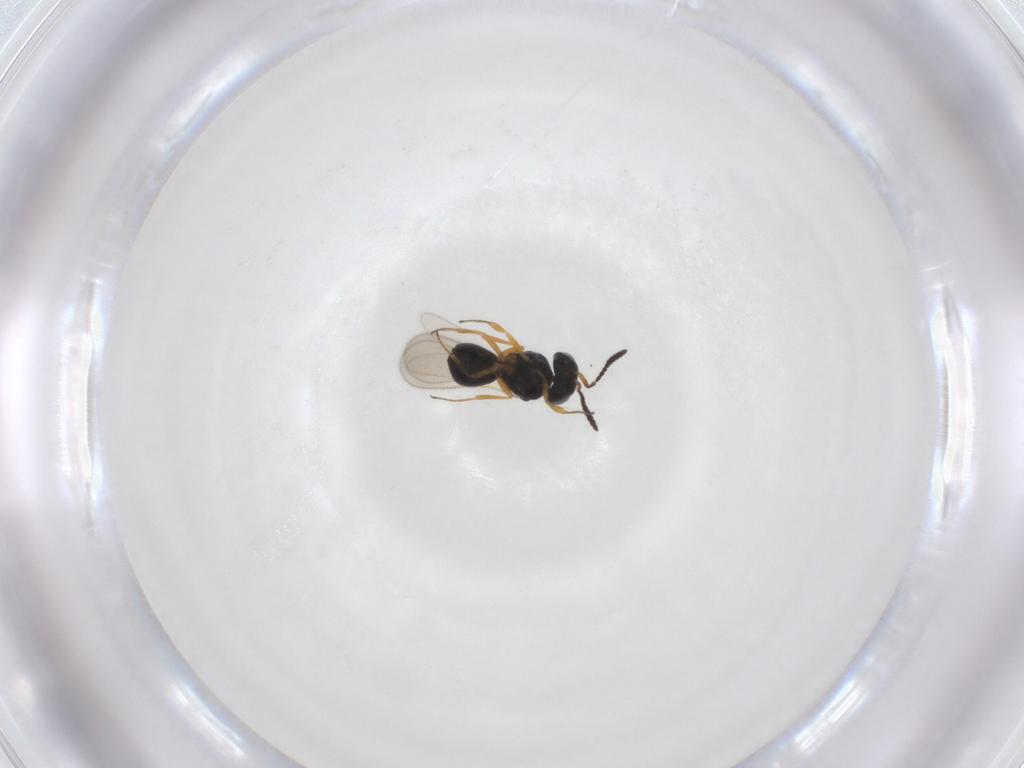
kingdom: Animalia
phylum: Arthropoda
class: Insecta
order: Hymenoptera
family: Scelionidae
